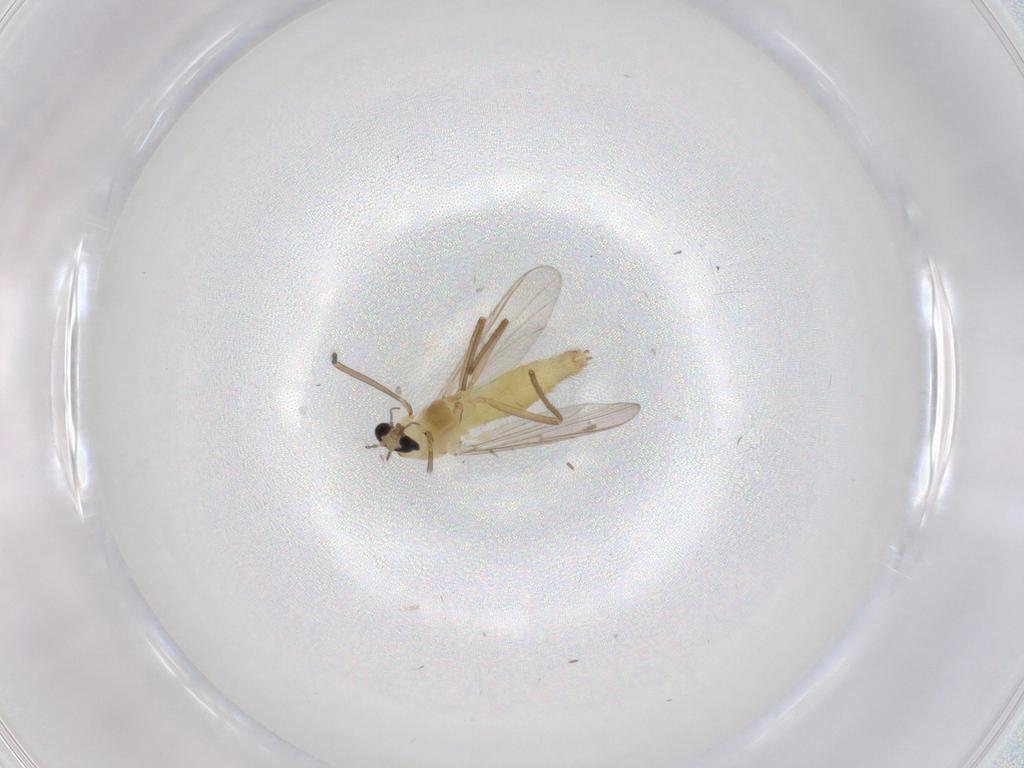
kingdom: Animalia
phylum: Arthropoda
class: Insecta
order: Diptera
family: Chironomidae
